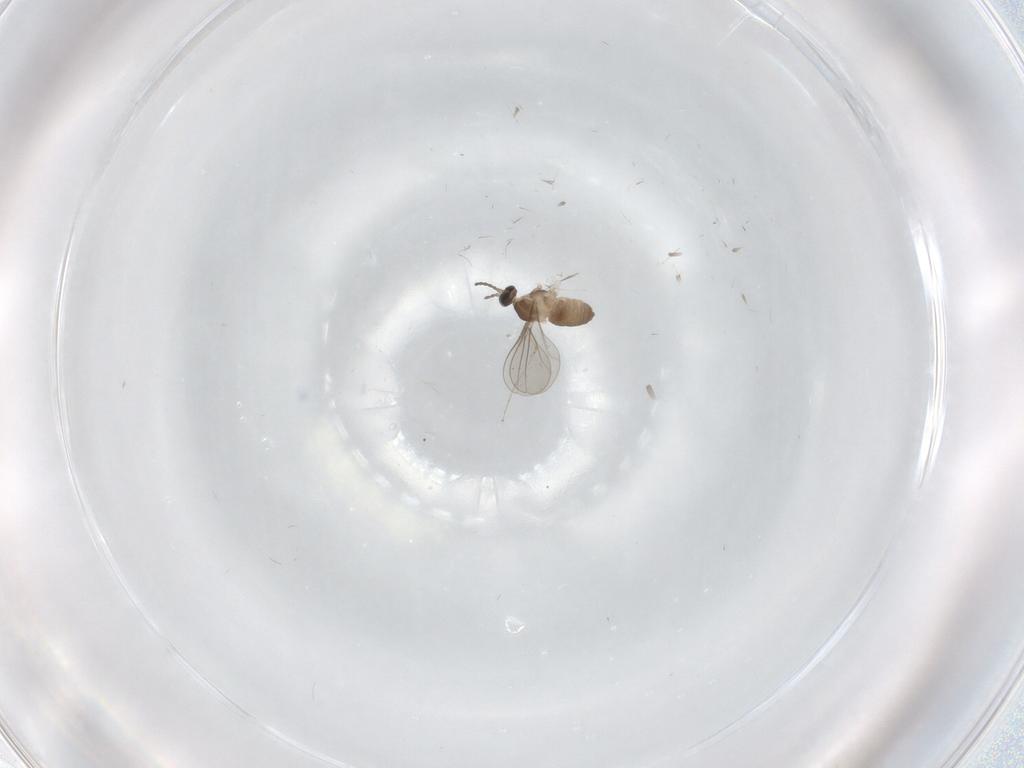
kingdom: Animalia
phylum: Arthropoda
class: Insecta
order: Diptera
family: Cecidomyiidae
